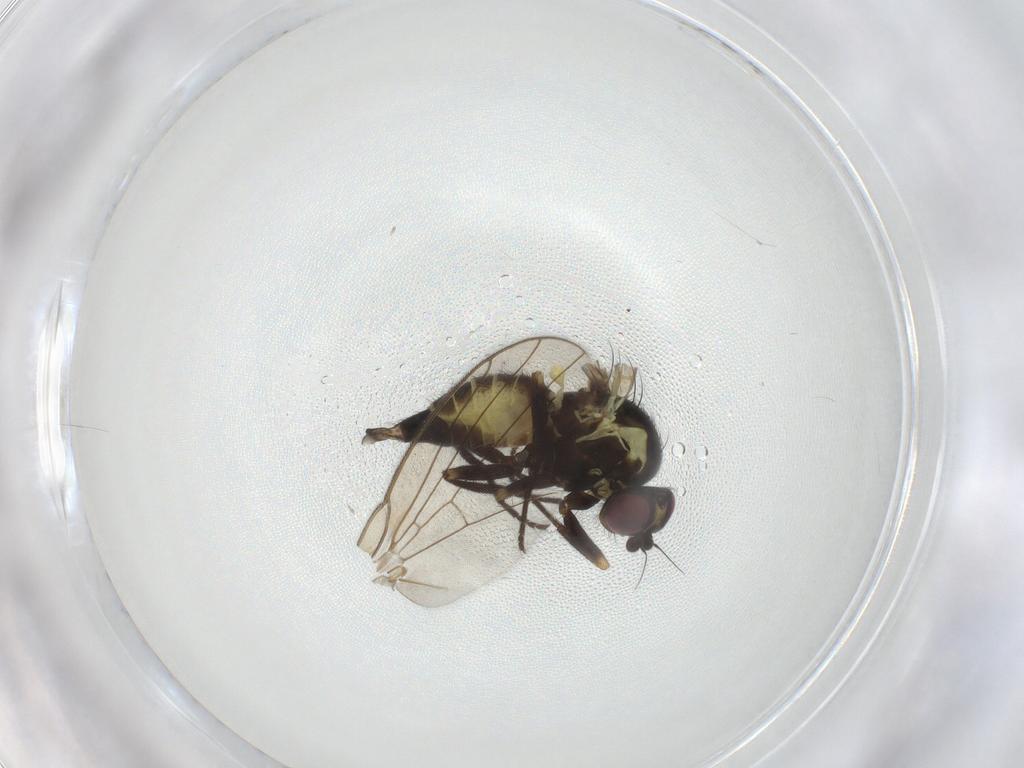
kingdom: Animalia
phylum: Arthropoda
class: Insecta
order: Diptera
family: Agromyzidae
